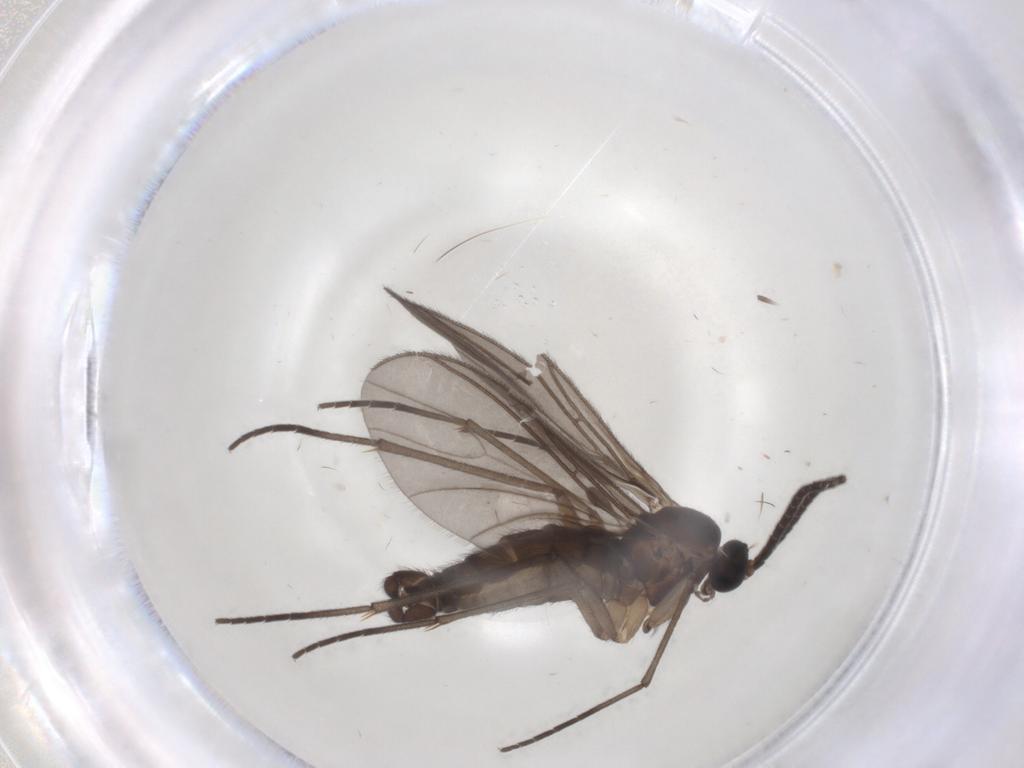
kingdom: Animalia
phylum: Arthropoda
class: Insecta
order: Diptera
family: Sciaridae
